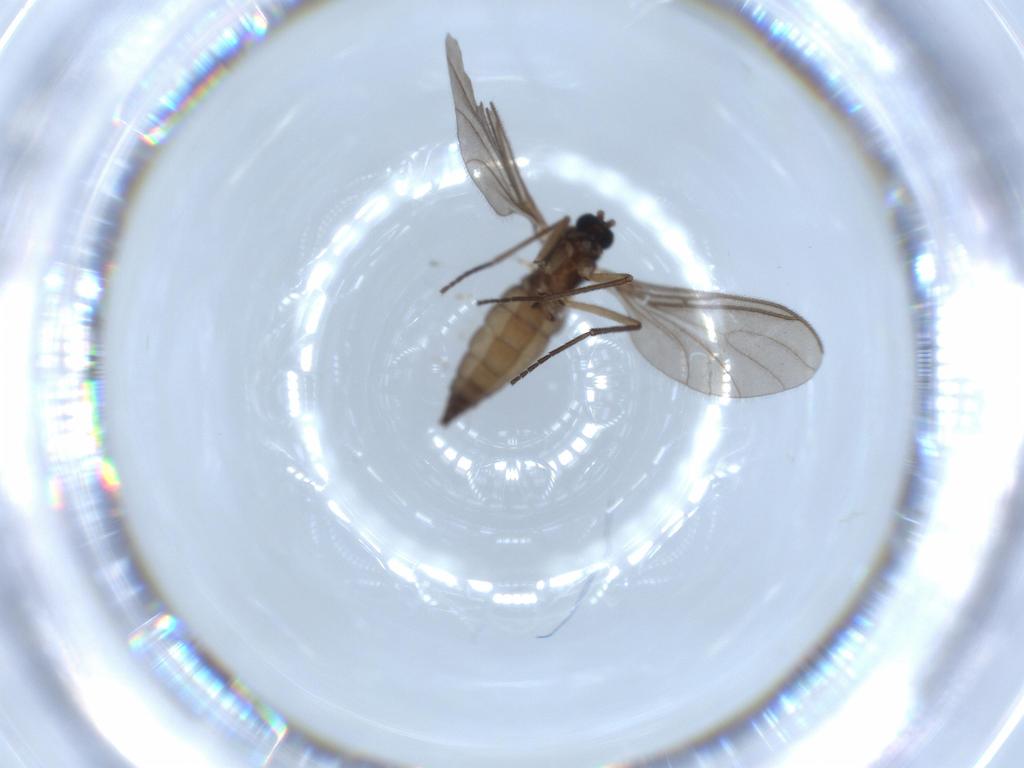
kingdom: Animalia
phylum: Arthropoda
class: Insecta
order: Diptera
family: Sciaridae
